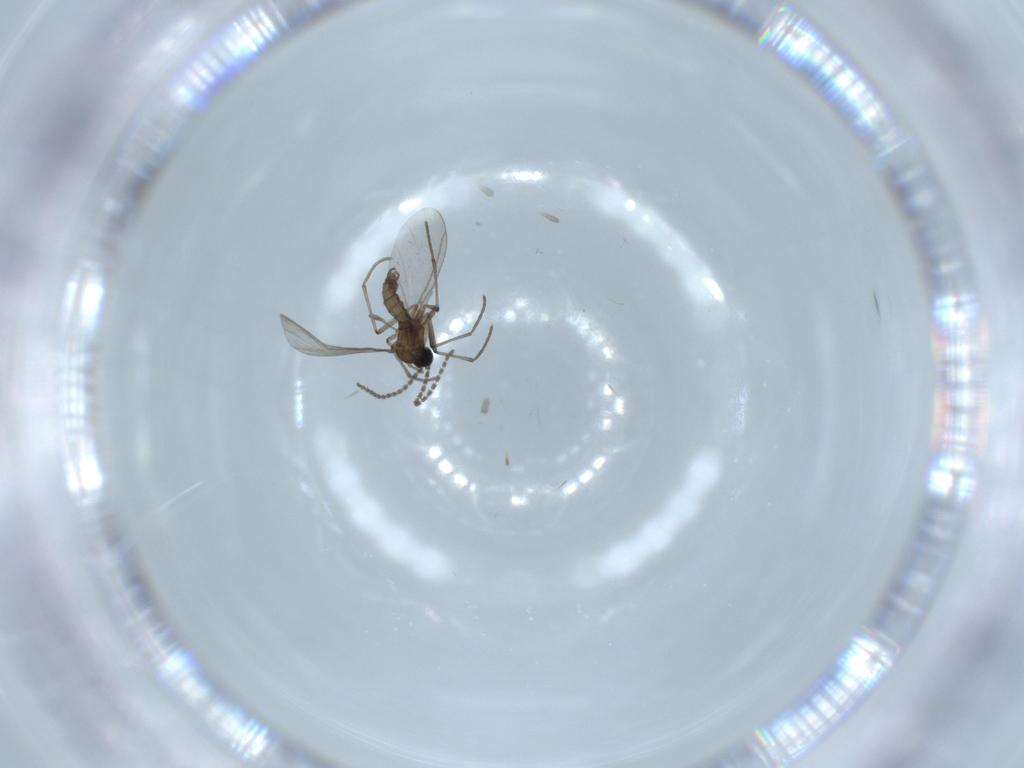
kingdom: Animalia
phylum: Arthropoda
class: Insecta
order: Diptera
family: Sciaridae
